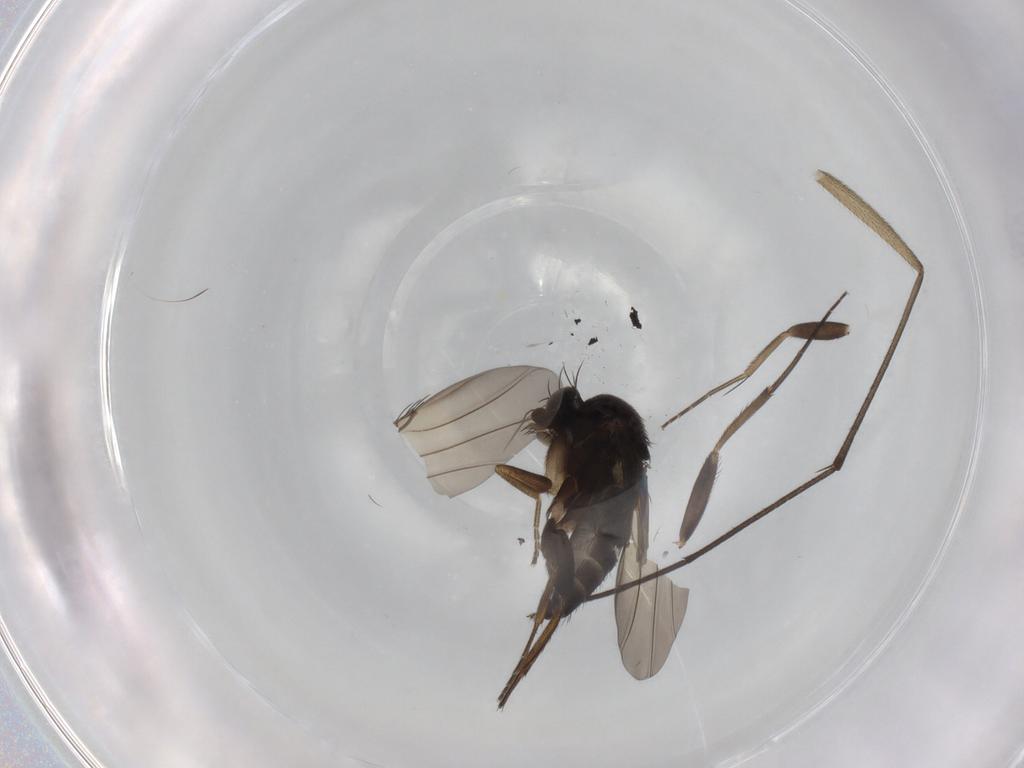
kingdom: Animalia
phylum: Arthropoda
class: Insecta
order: Diptera
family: Phoridae
